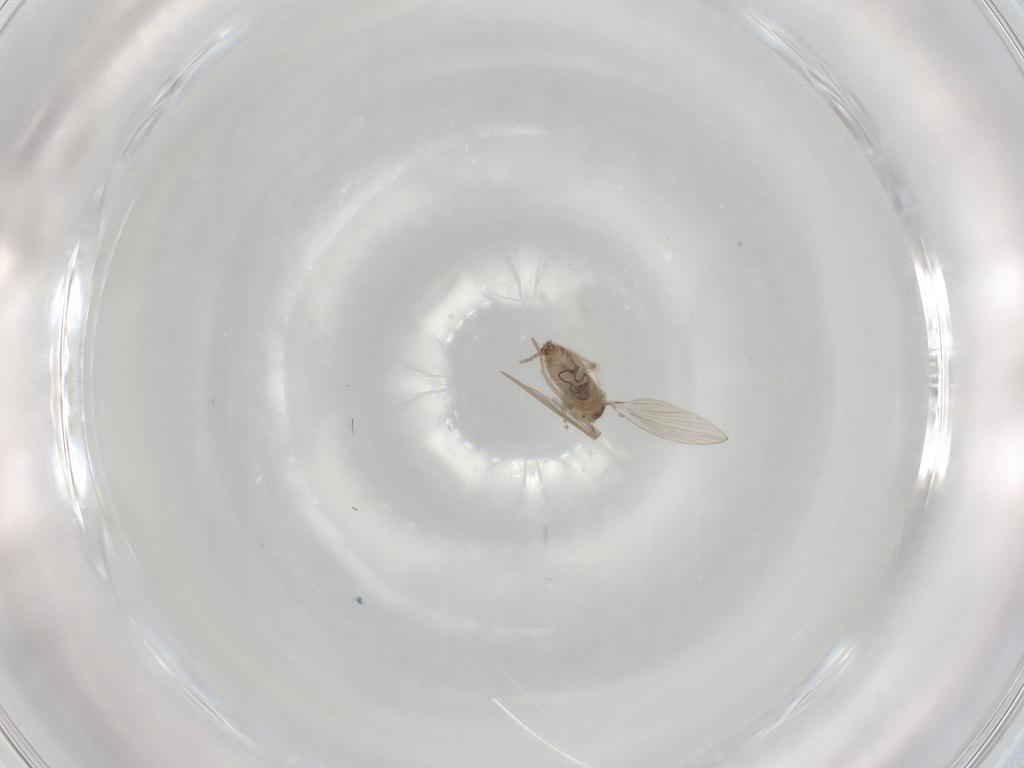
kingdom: Animalia
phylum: Arthropoda
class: Insecta
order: Diptera
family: Psychodidae
